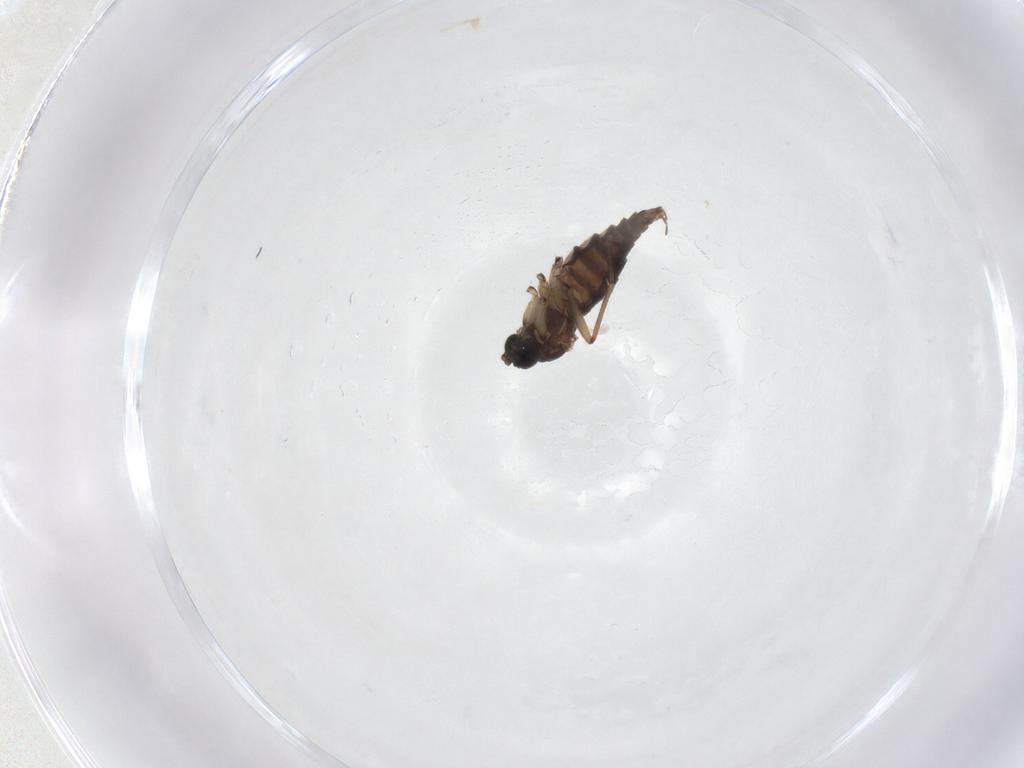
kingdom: Animalia
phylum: Arthropoda
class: Insecta
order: Diptera
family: Sciaridae
